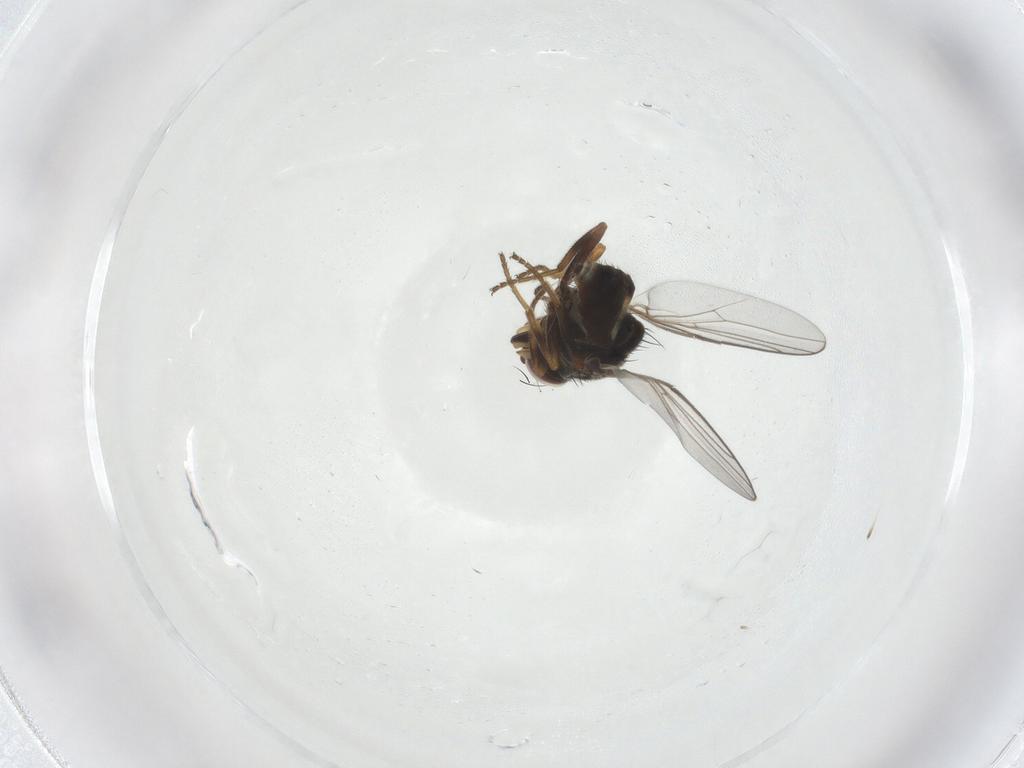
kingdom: Animalia
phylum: Arthropoda
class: Insecta
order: Diptera
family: Chloropidae
